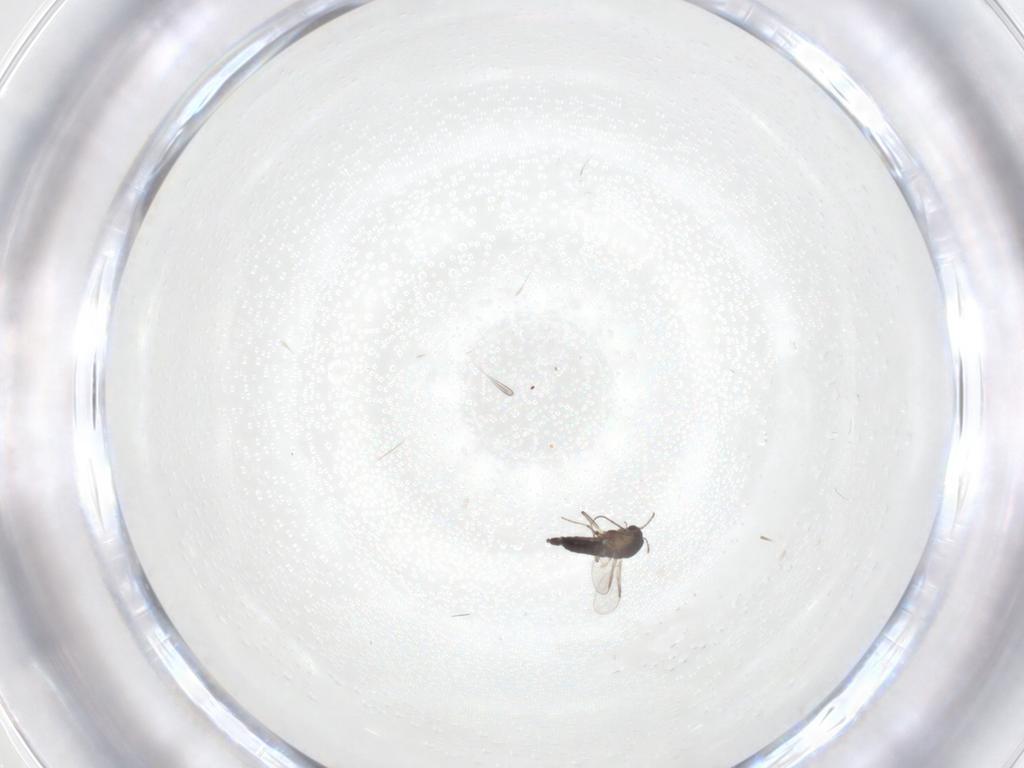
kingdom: Animalia
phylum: Arthropoda
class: Insecta
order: Diptera
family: Chironomidae
